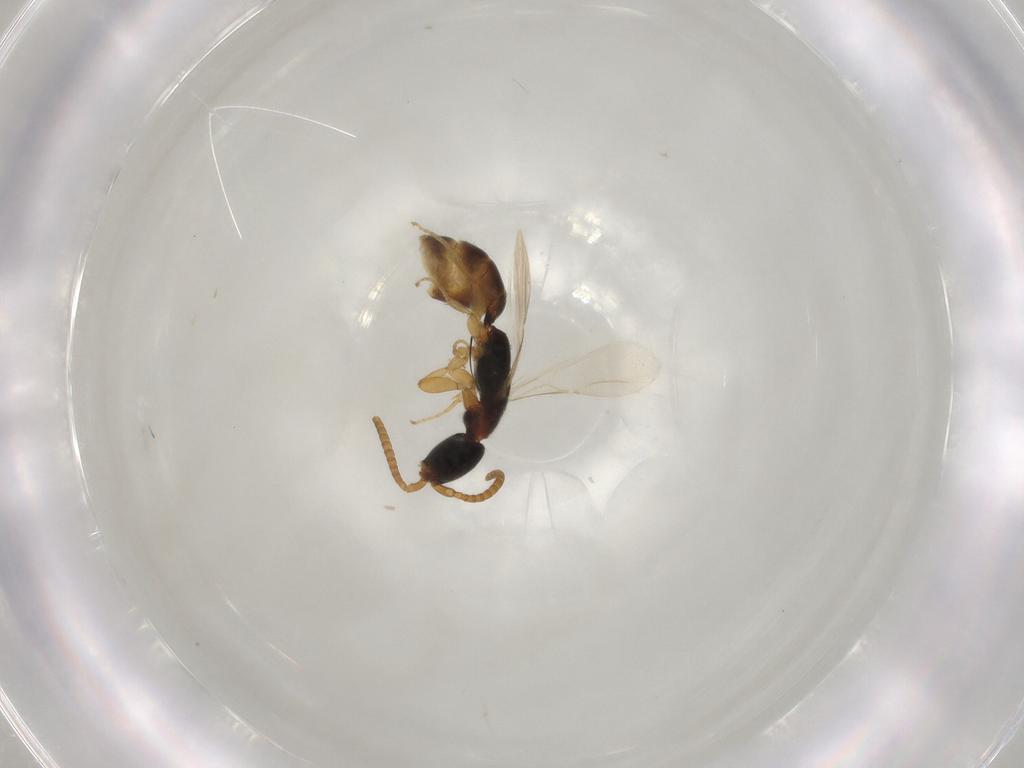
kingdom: Animalia
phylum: Arthropoda
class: Insecta
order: Hymenoptera
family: Bethylidae
